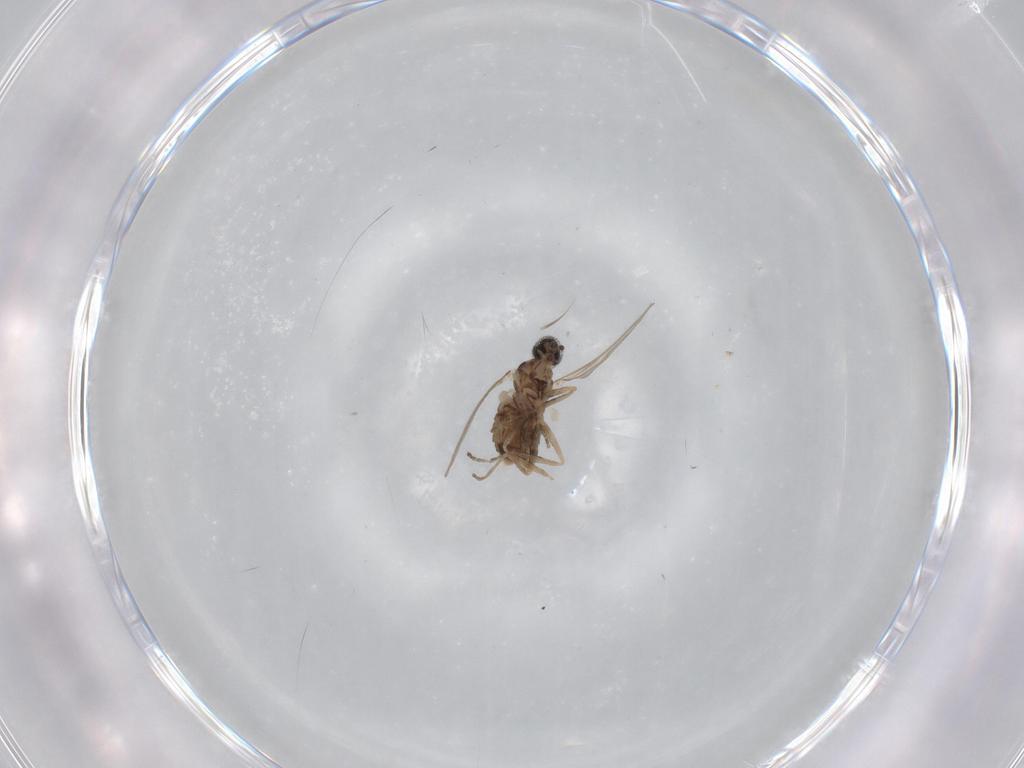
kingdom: Animalia
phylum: Arthropoda
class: Insecta
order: Diptera
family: Cecidomyiidae
